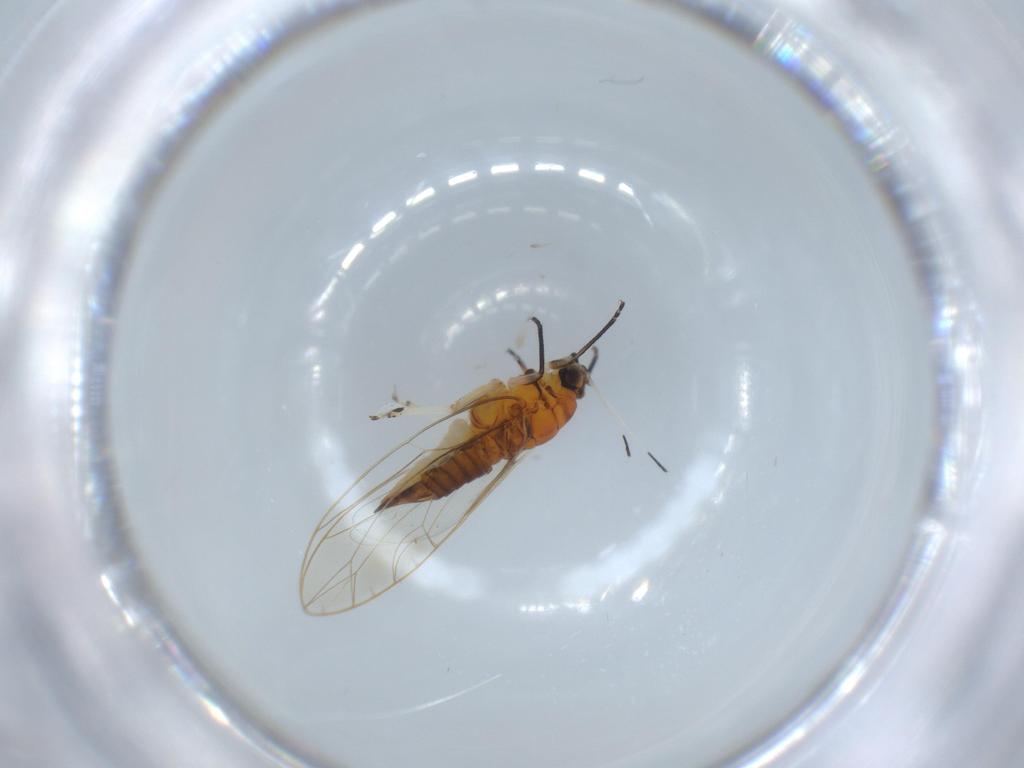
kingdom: Animalia
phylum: Arthropoda
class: Insecta
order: Hemiptera
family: Triozidae
